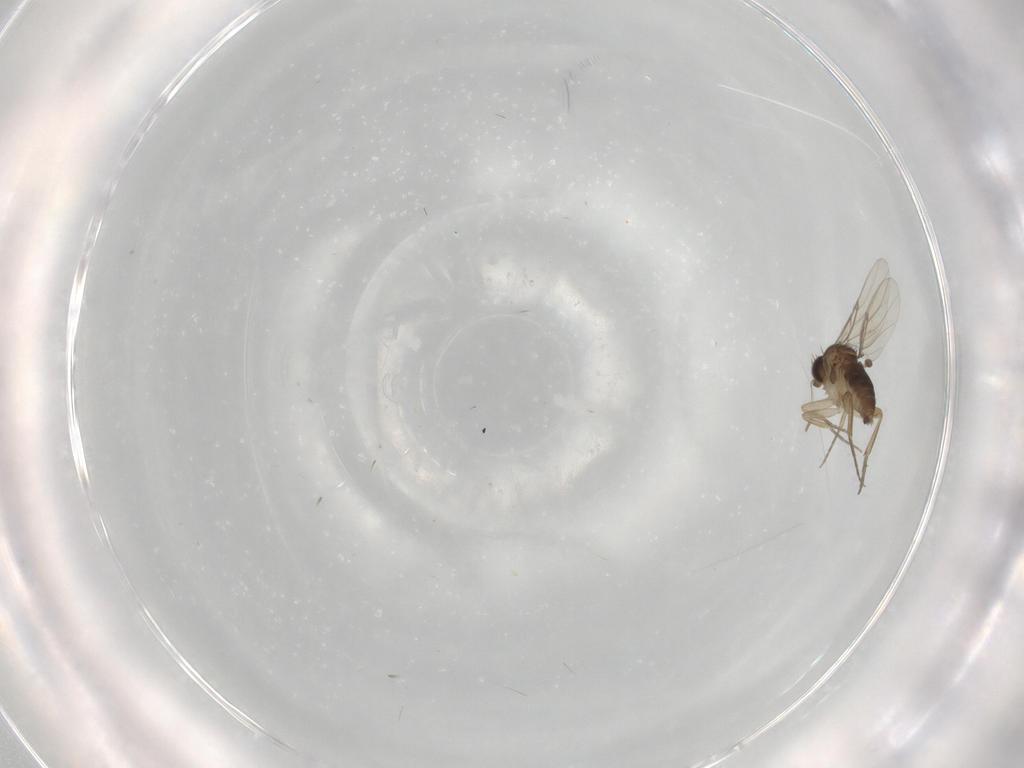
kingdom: Animalia
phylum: Arthropoda
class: Insecta
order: Diptera
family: Phoridae
